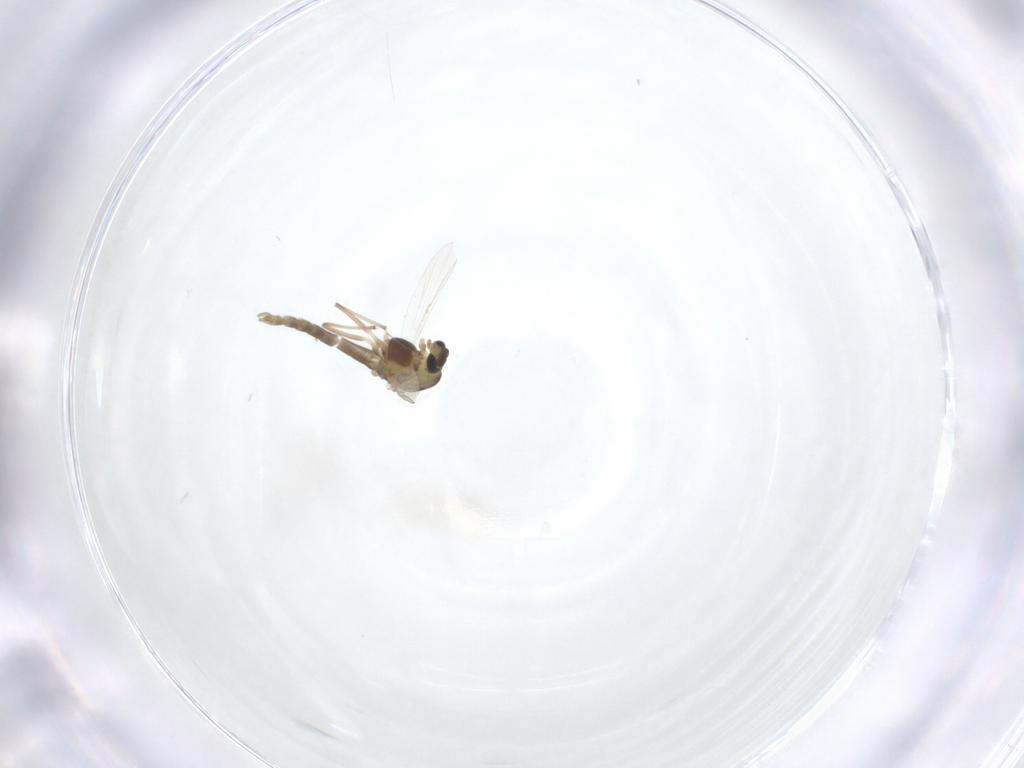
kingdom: Animalia
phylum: Arthropoda
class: Insecta
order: Diptera
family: Chironomidae
